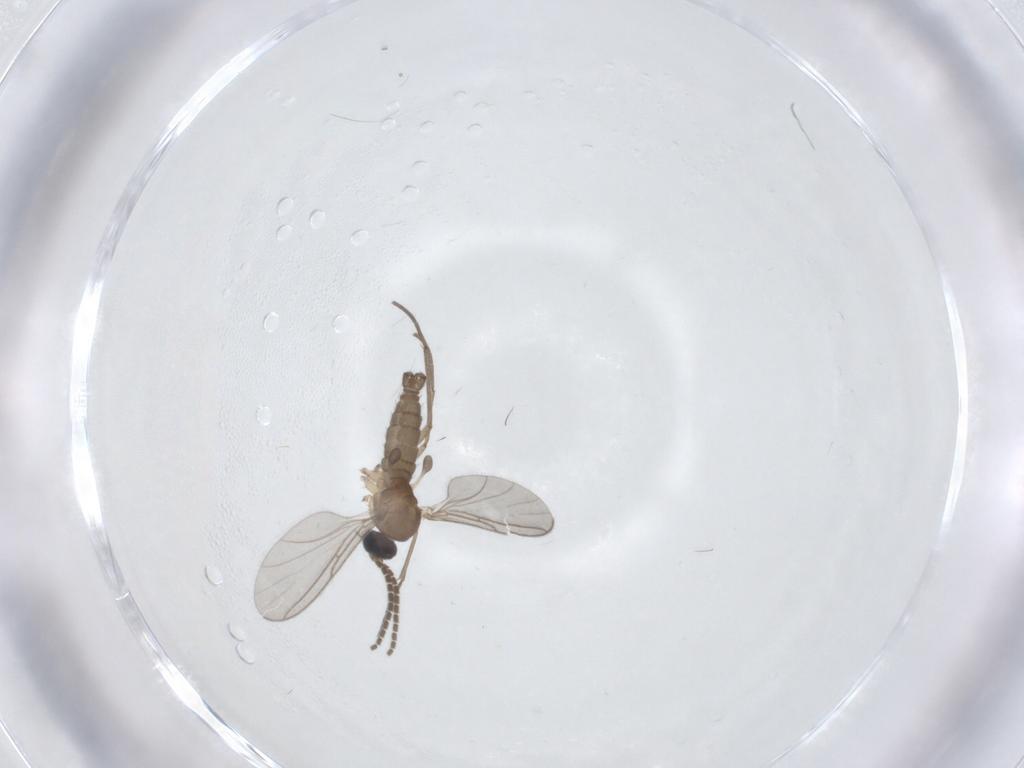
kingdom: Animalia
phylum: Arthropoda
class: Insecta
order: Diptera
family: Sciaridae
